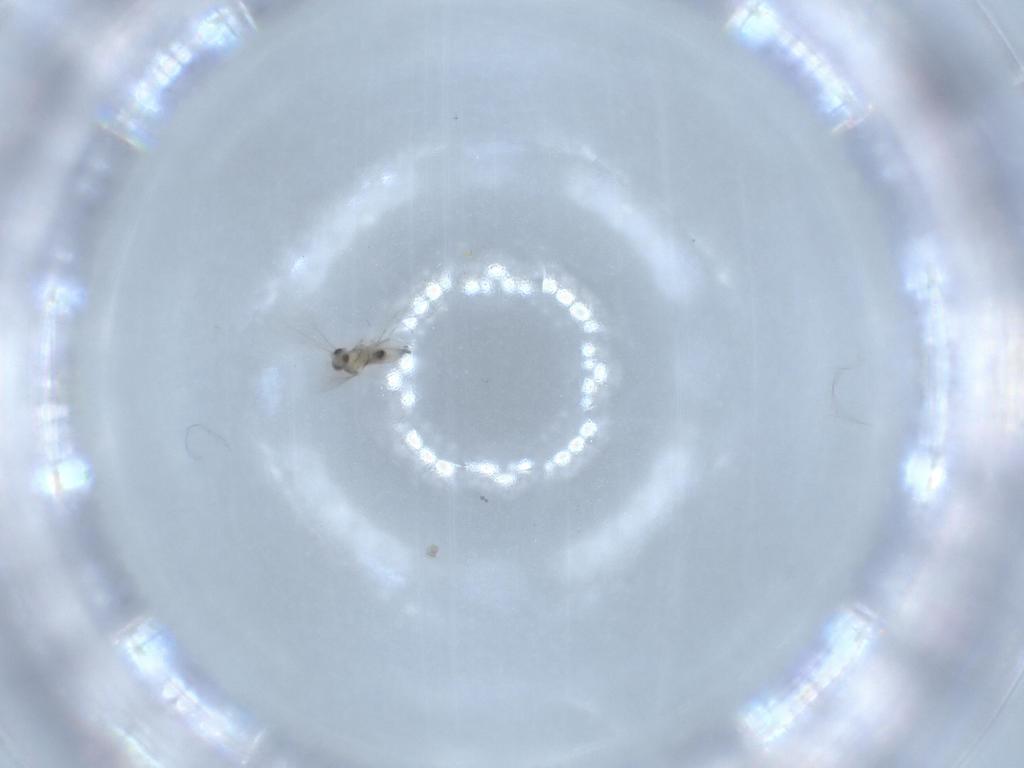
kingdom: Animalia
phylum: Arthropoda
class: Insecta
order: Diptera
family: Cecidomyiidae
